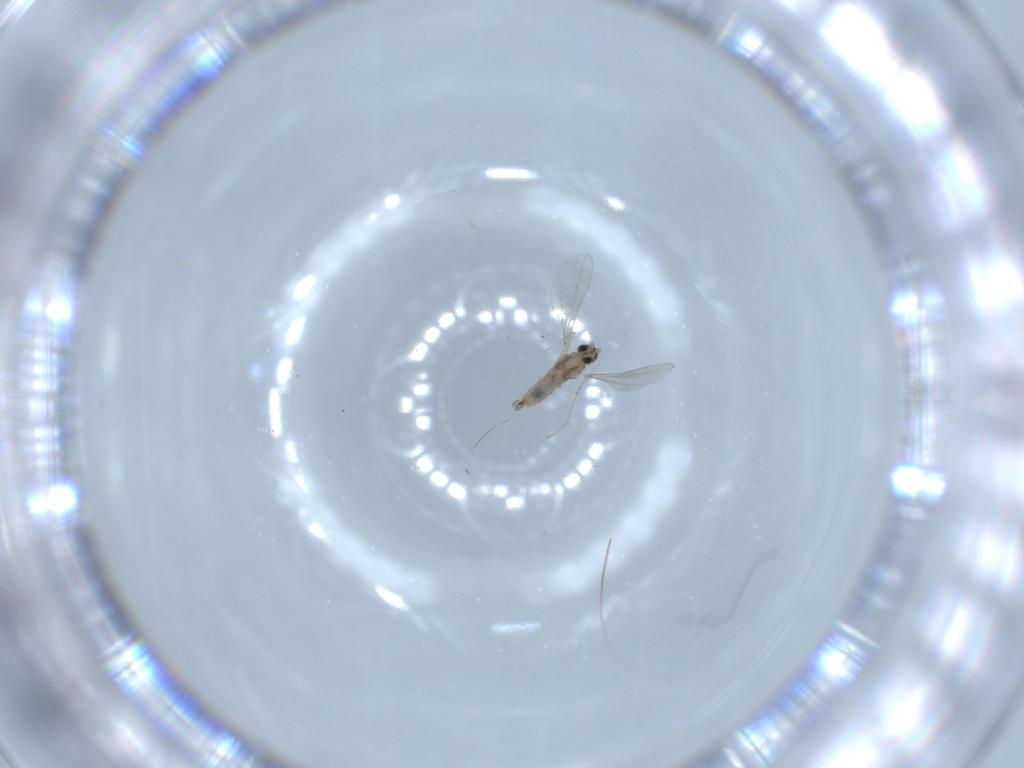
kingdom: Animalia
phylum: Arthropoda
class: Insecta
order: Diptera
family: Cecidomyiidae
